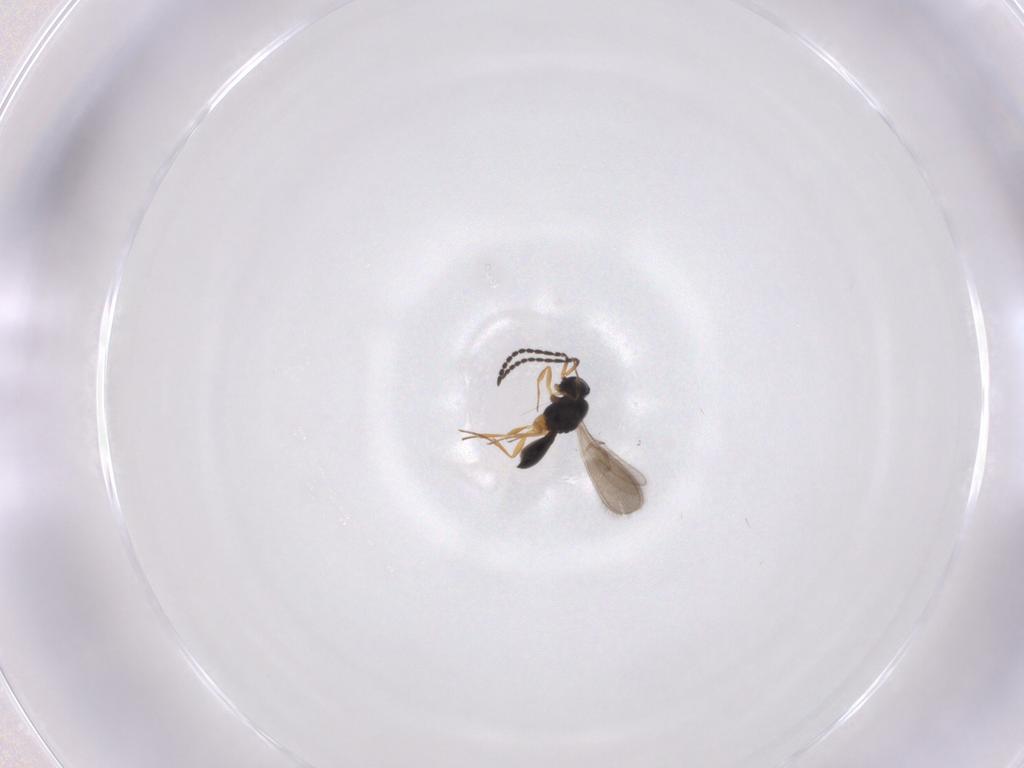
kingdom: Animalia
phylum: Arthropoda
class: Insecta
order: Hymenoptera
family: Scelionidae
